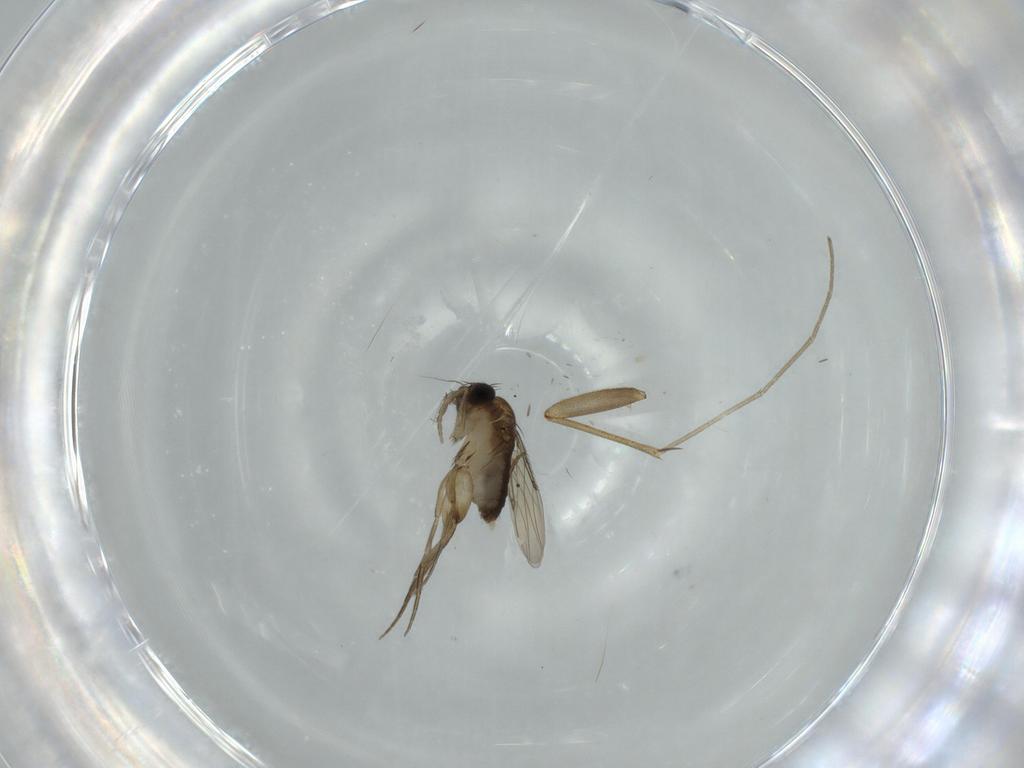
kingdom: Animalia
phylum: Arthropoda
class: Insecta
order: Diptera
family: Phoridae
